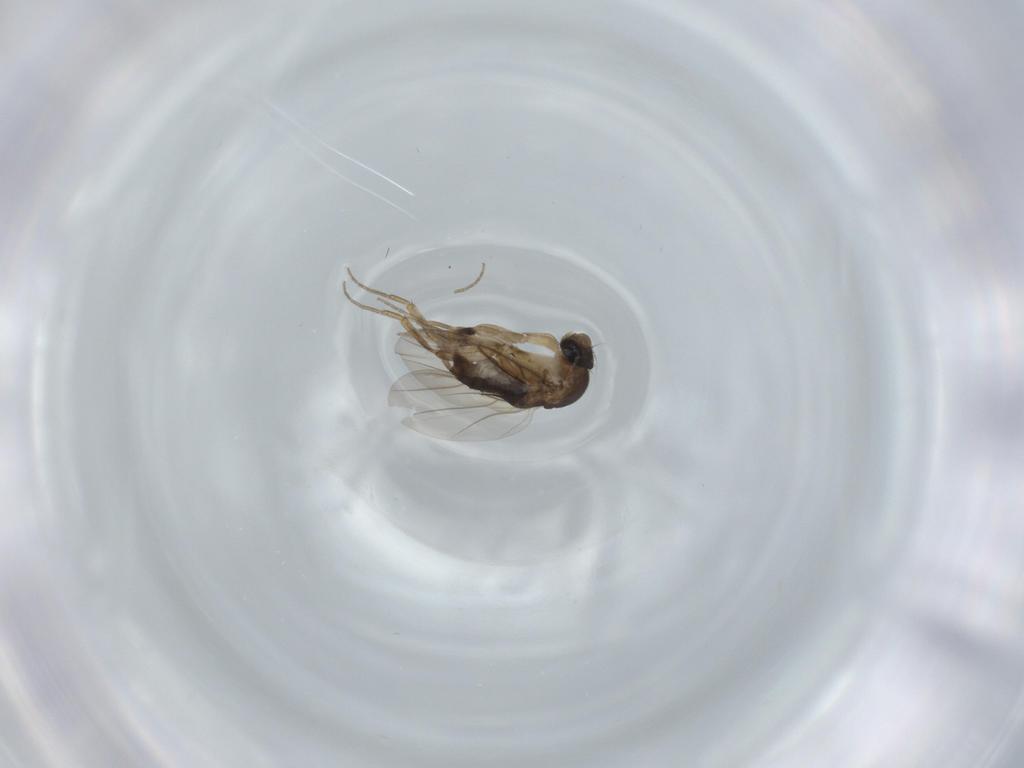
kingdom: Animalia
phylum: Arthropoda
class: Insecta
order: Diptera
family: Phoridae
